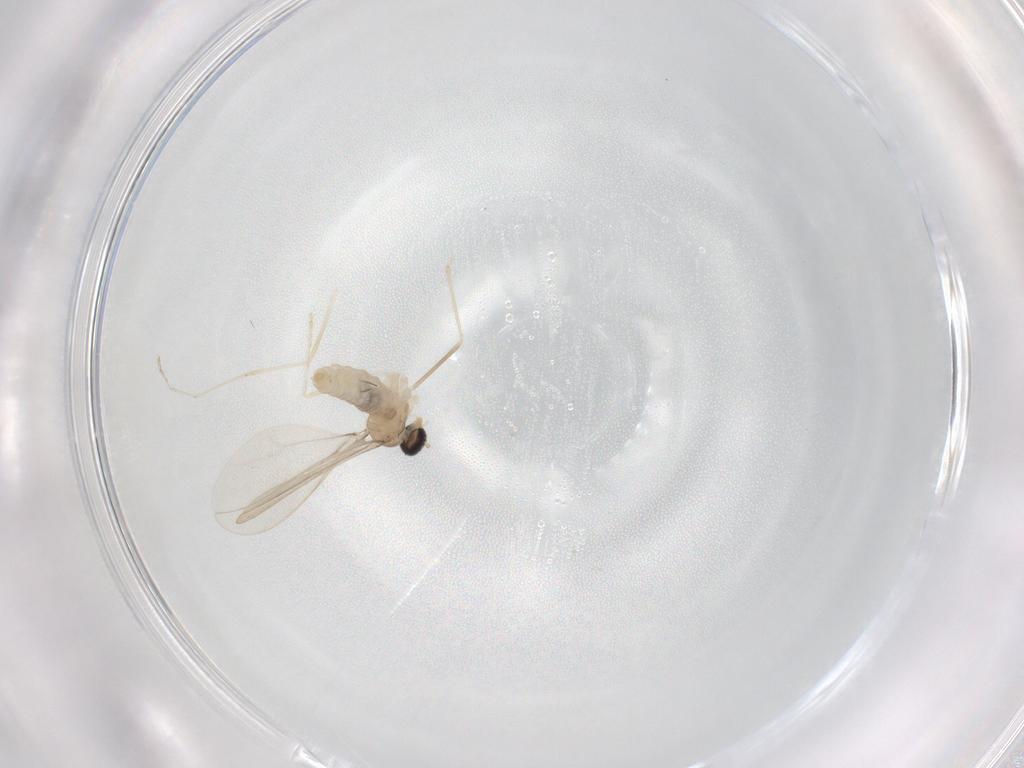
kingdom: Animalia
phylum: Arthropoda
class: Insecta
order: Diptera
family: Cecidomyiidae
